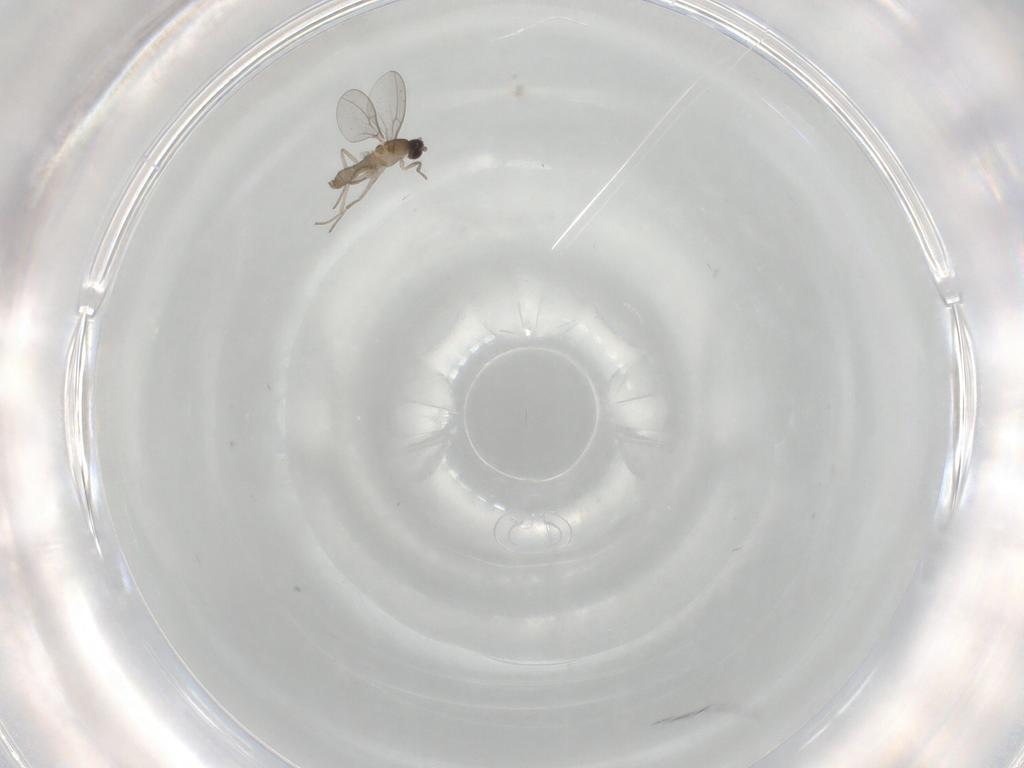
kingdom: Animalia
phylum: Arthropoda
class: Insecta
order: Diptera
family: Cecidomyiidae
